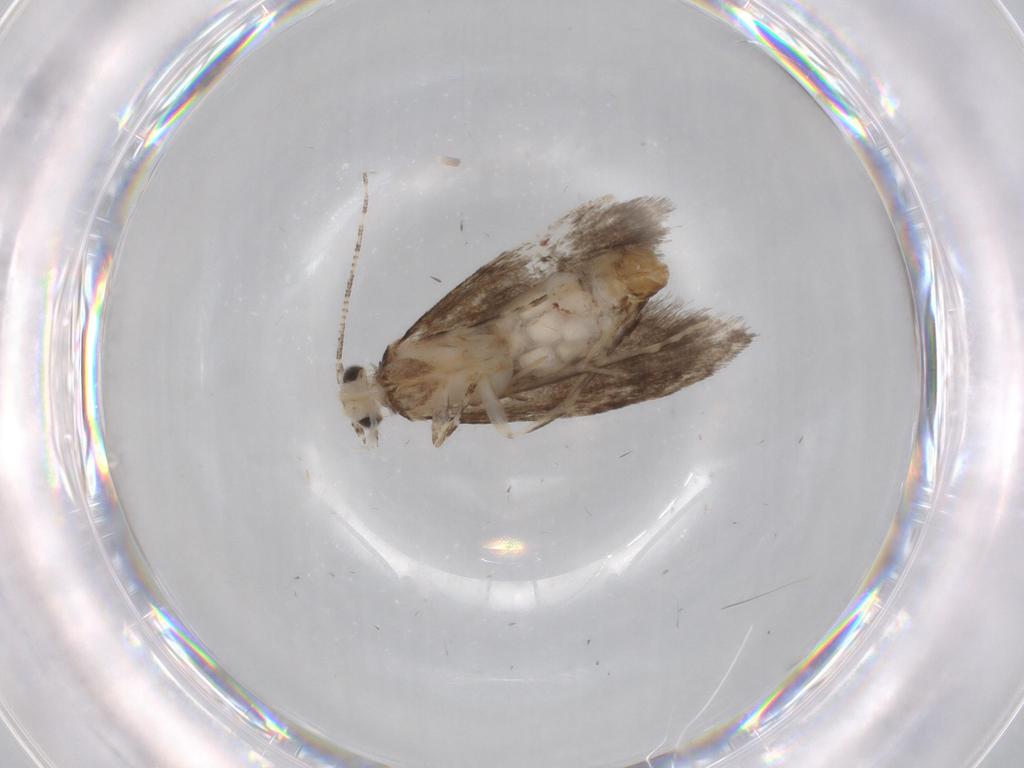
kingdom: Animalia
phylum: Arthropoda
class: Insecta
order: Lepidoptera
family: Tineidae
